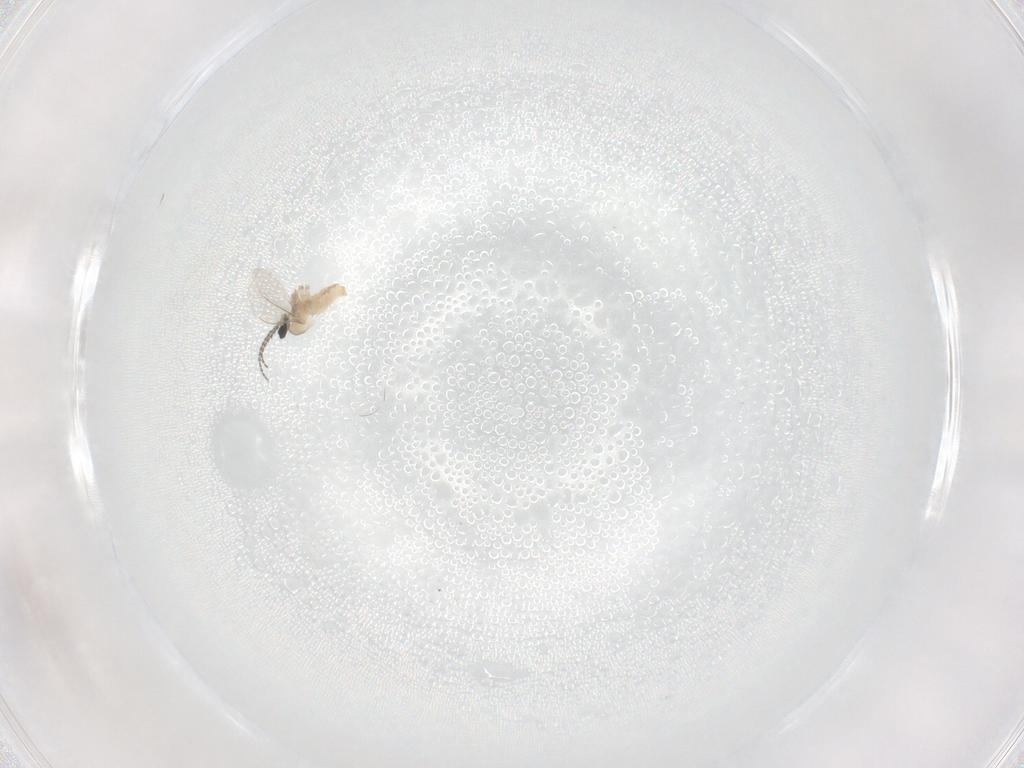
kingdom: Animalia
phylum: Arthropoda
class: Insecta
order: Diptera
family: Cecidomyiidae
